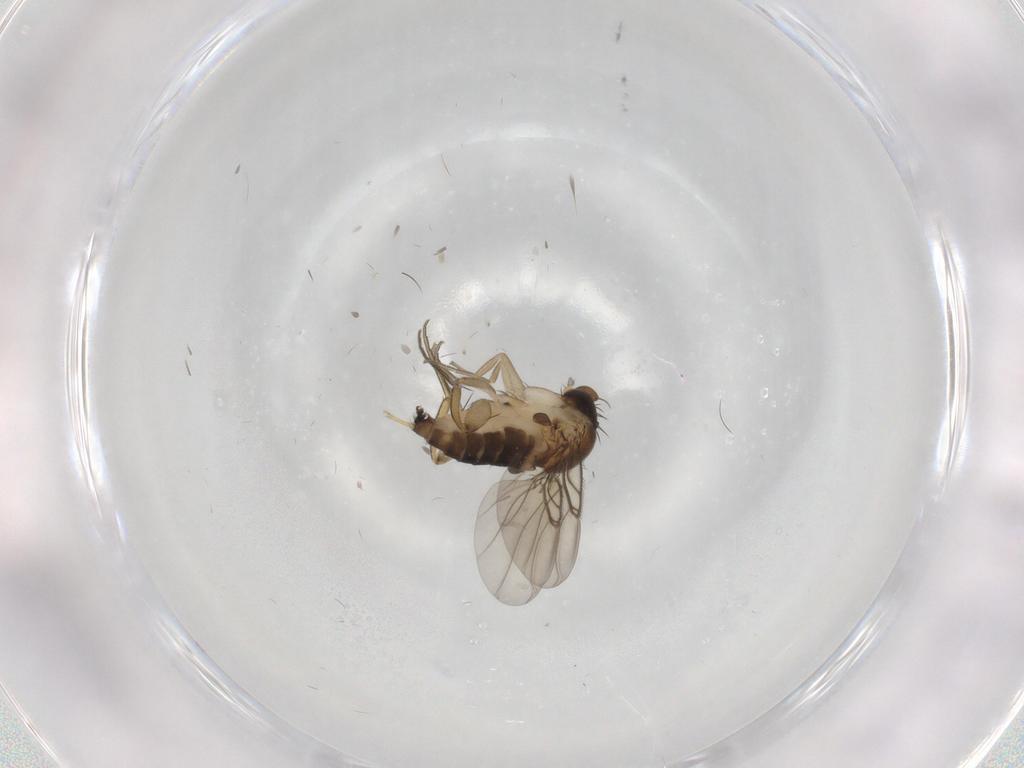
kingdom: Animalia
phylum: Arthropoda
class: Insecta
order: Diptera
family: Phoridae
